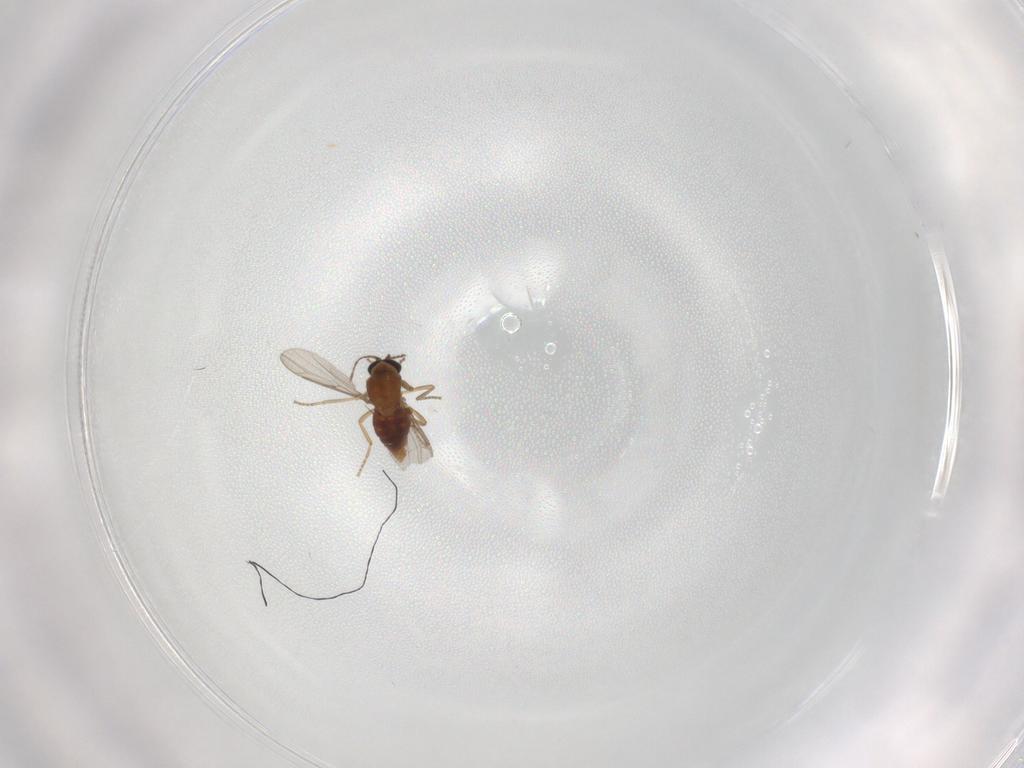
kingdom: Animalia
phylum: Arthropoda
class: Insecta
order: Diptera
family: Ceratopogonidae
